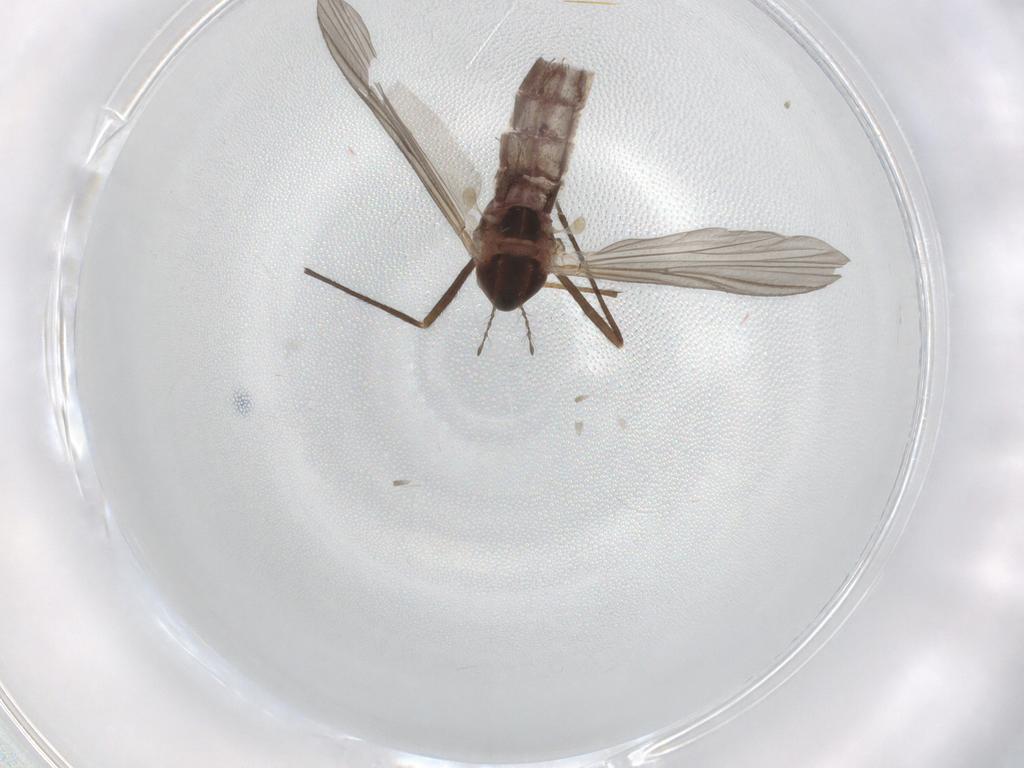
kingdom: Animalia
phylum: Arthropoda
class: Insecta
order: Diptera
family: Chironomidae
